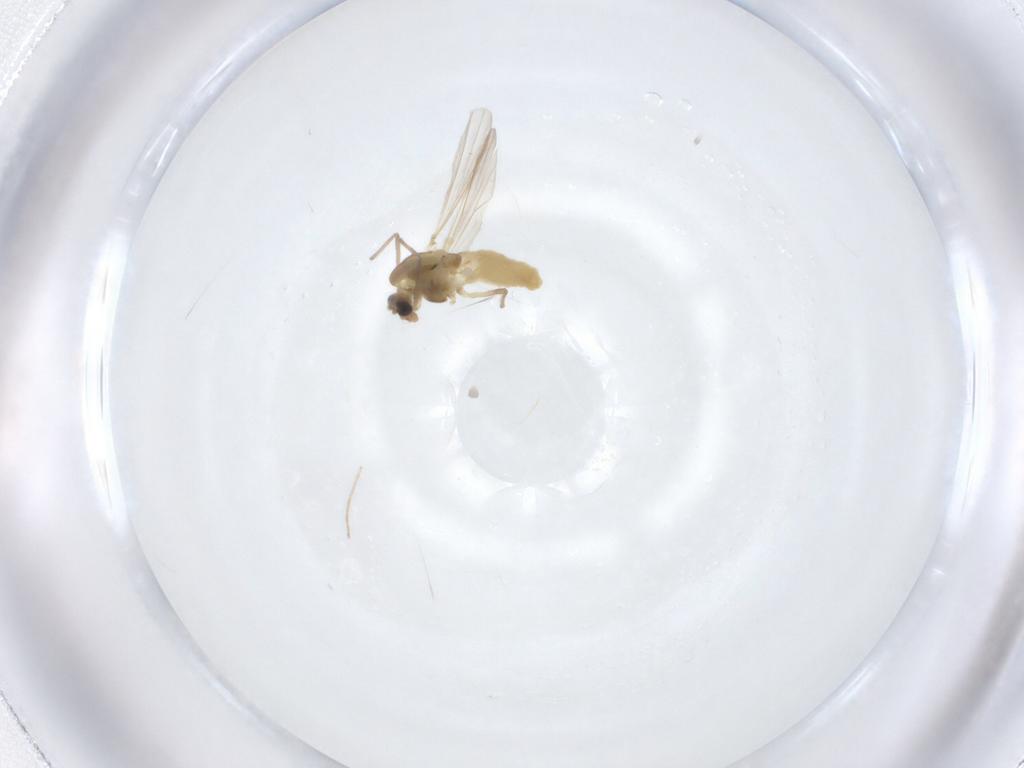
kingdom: Animalia
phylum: Arthropoda
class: Insecta
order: Diptera
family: Chironomidae
